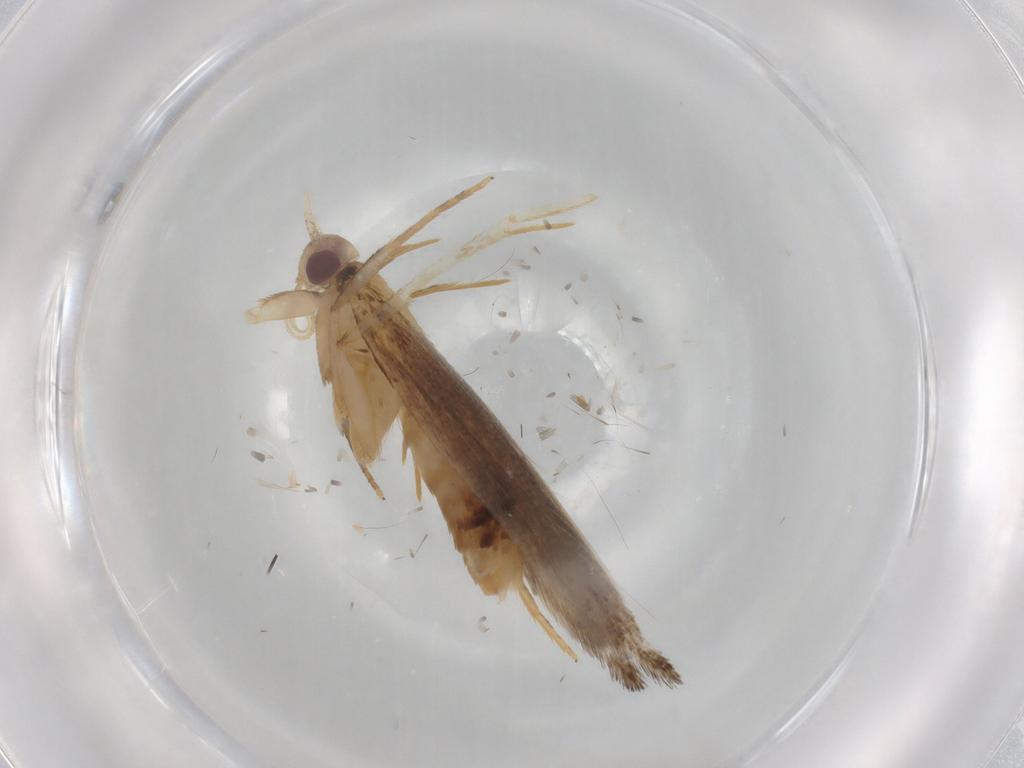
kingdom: Animalia
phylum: Arthropoda
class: Insecta
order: Lepidoptera
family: Cosmopterigidae
